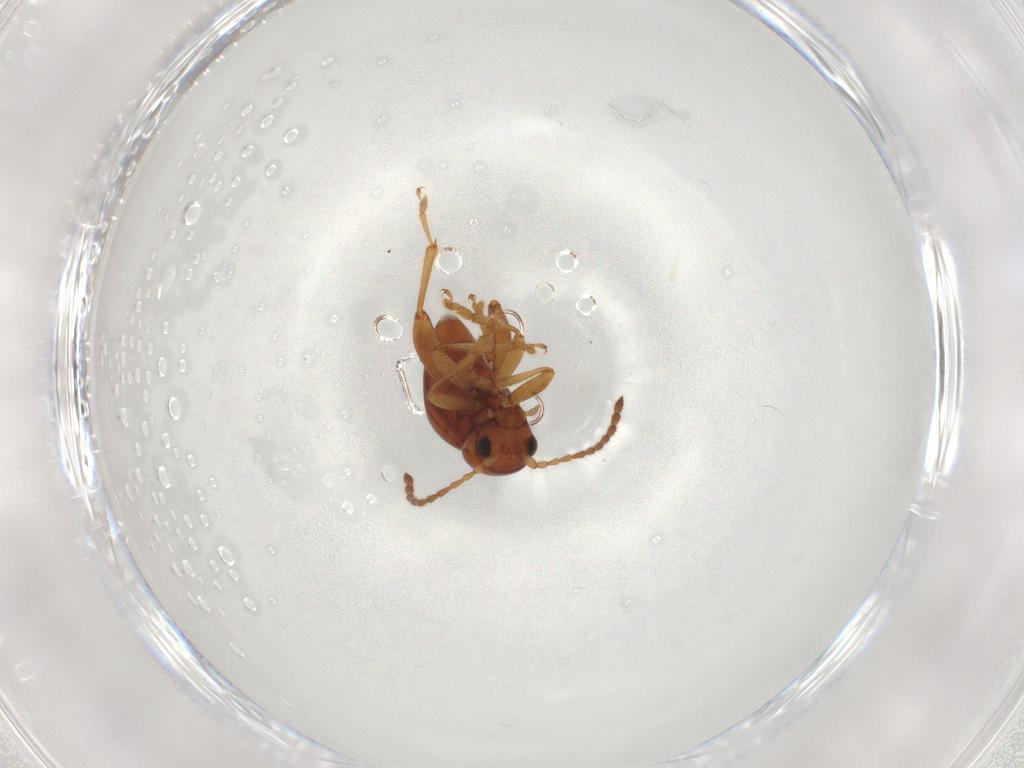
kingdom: Animalia
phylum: Arthropoda
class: Insecta
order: Coleoptera
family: Chrysomelidae
